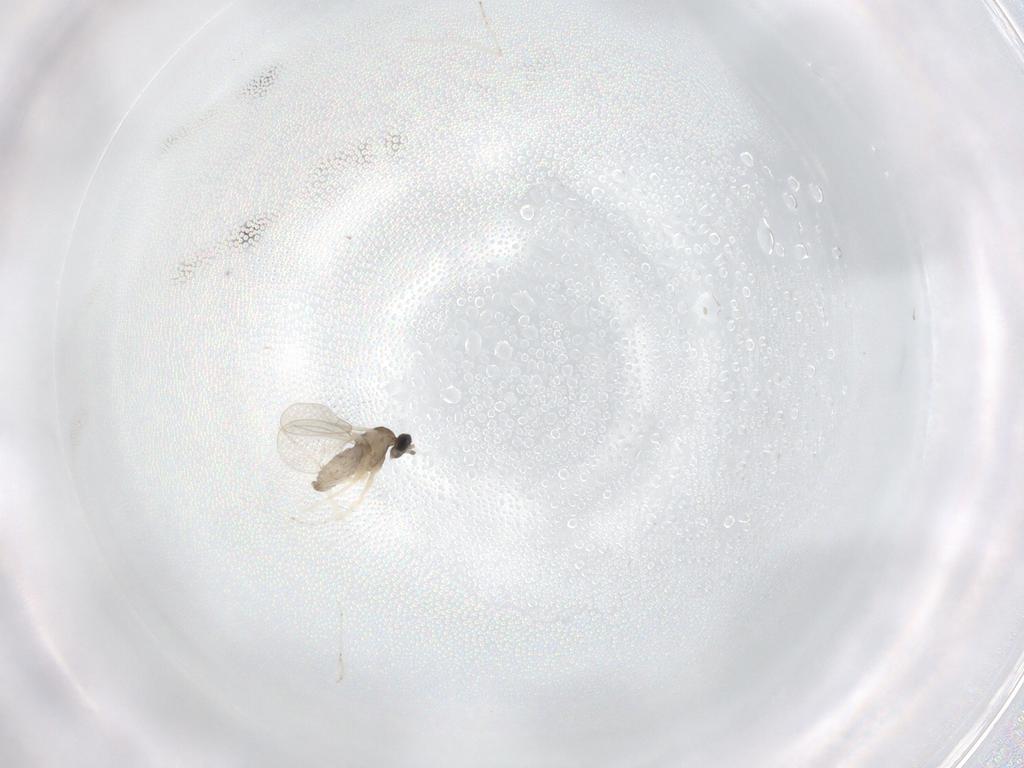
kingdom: Animalia
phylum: Arthropoda
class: Insecta
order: Diptera
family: Cecidomyiidae
